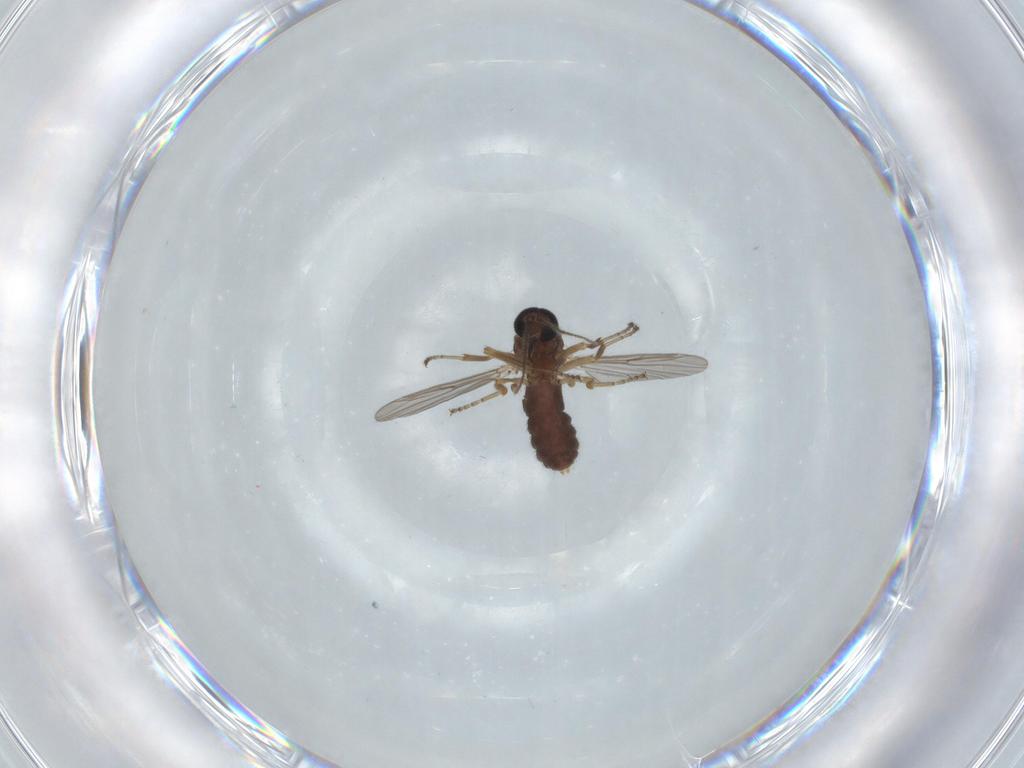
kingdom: Animalia
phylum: Arthropoda
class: Insecta
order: Diptera
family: Ceratopogonidae
